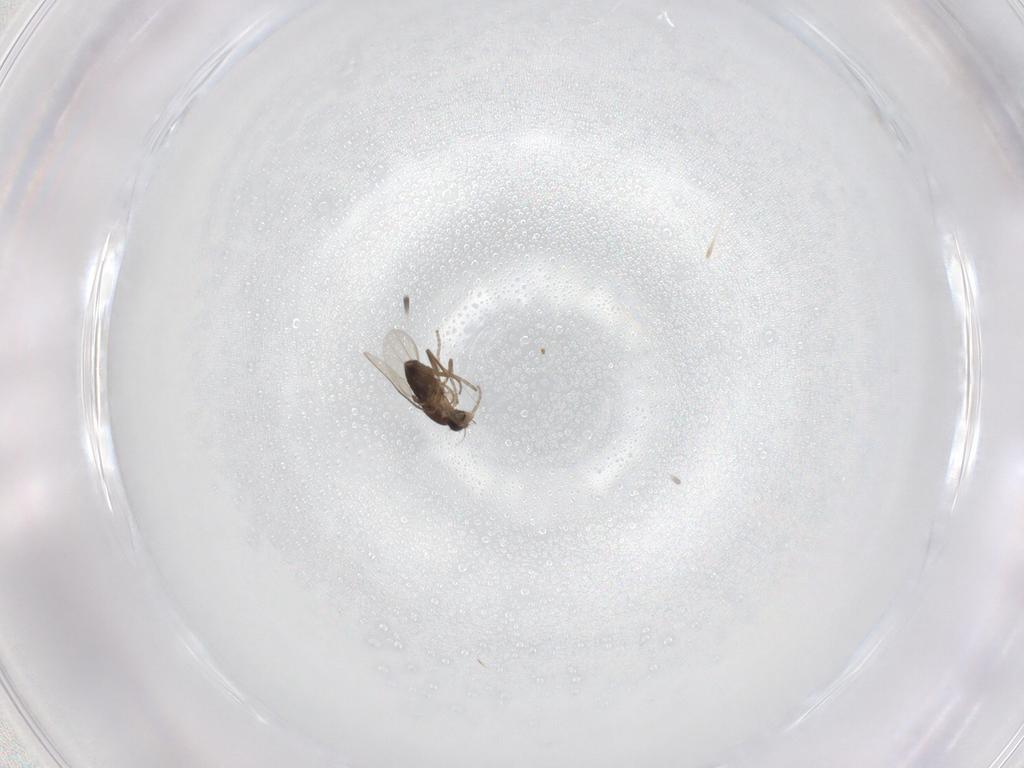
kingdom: Animalia
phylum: Arthropoda
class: Insecta
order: Diptera
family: Phoridae
